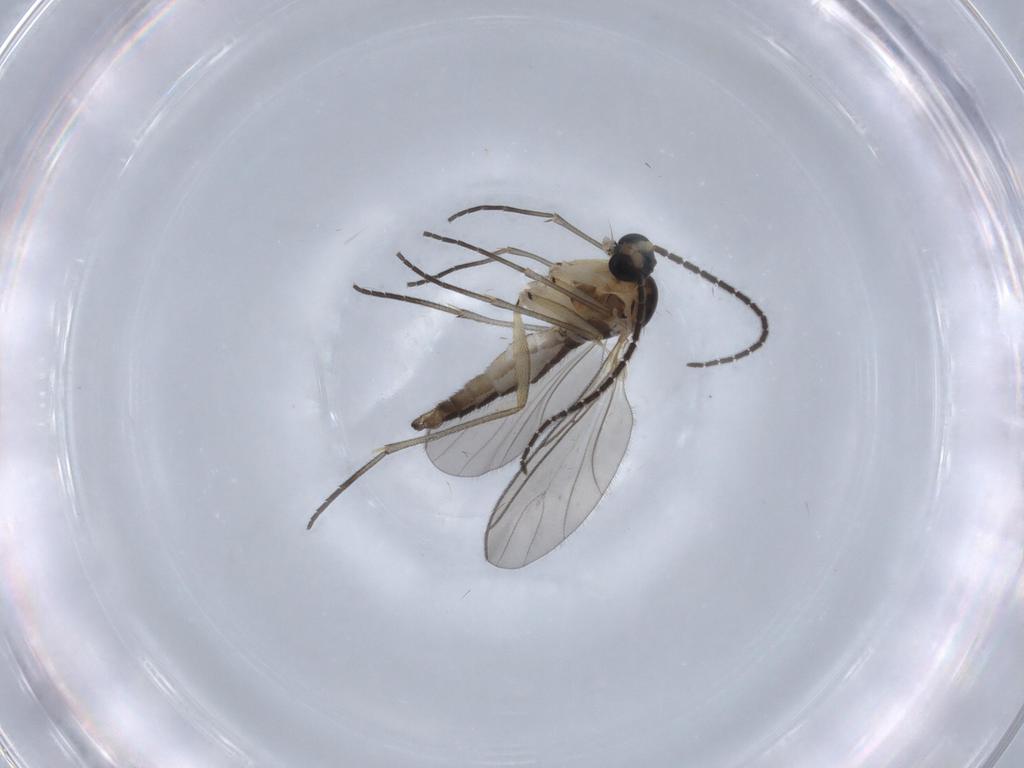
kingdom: Animalia
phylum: Arthropoda
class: Insecta
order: Diptera
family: Sciaridae
